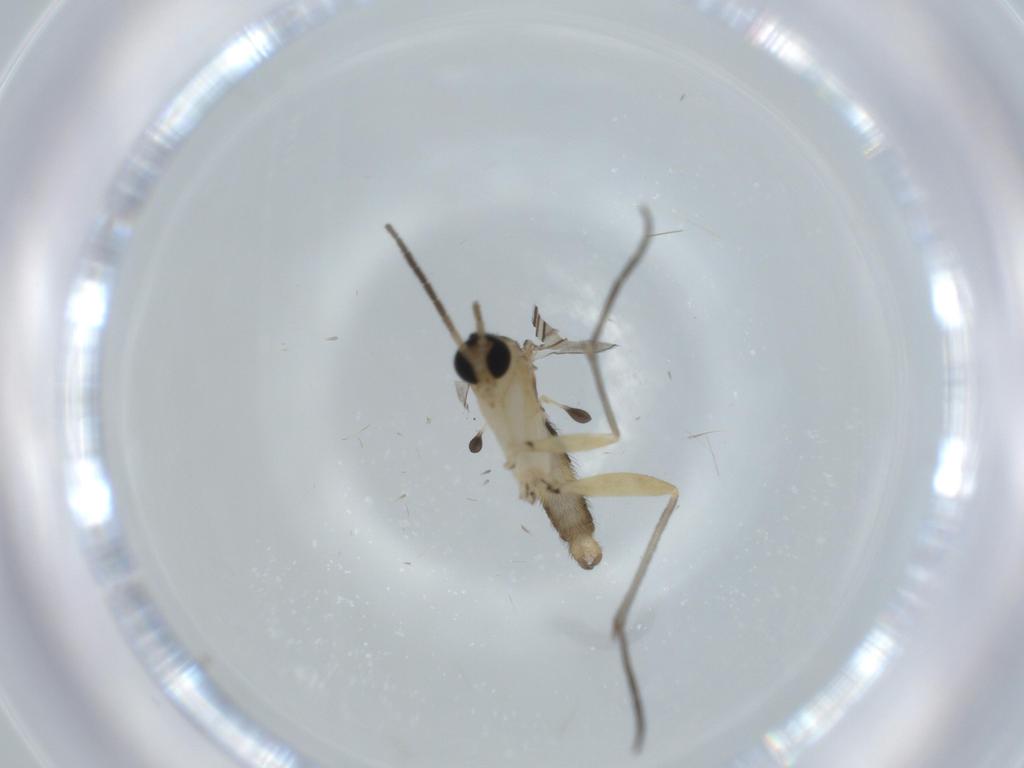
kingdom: Animalia
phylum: Arthropoda
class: Insecta
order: Diptera
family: Sciaridae
